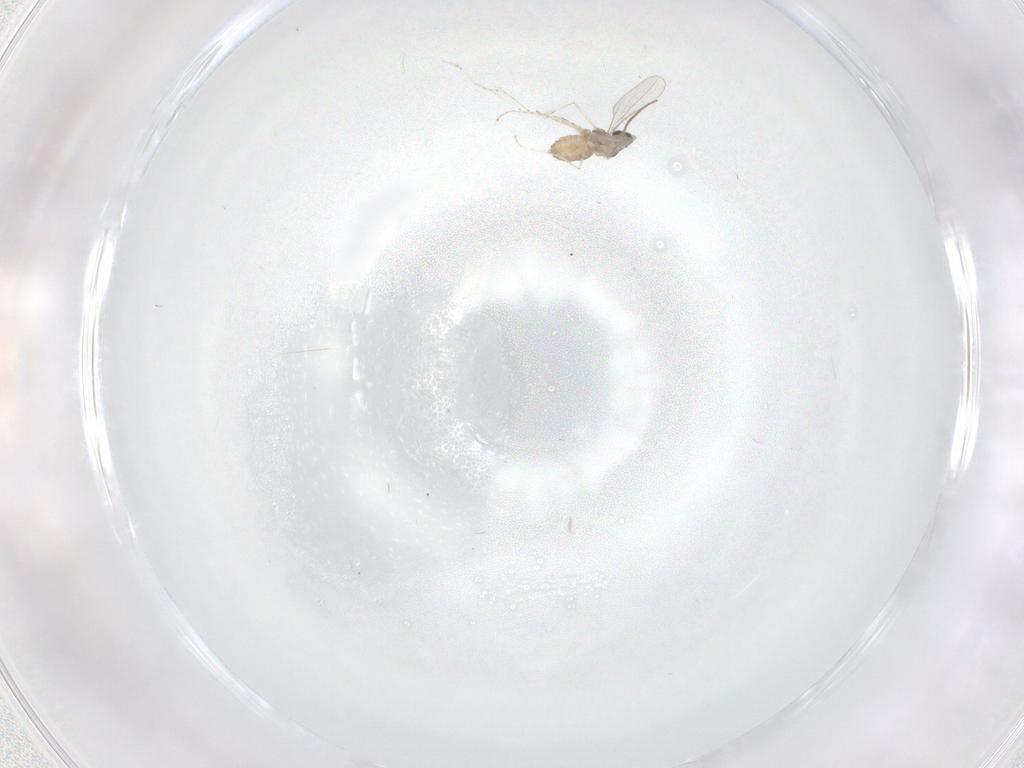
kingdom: Animalia
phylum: Arthropoda
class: Insecta
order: Diptera
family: Cecidomyiidae
